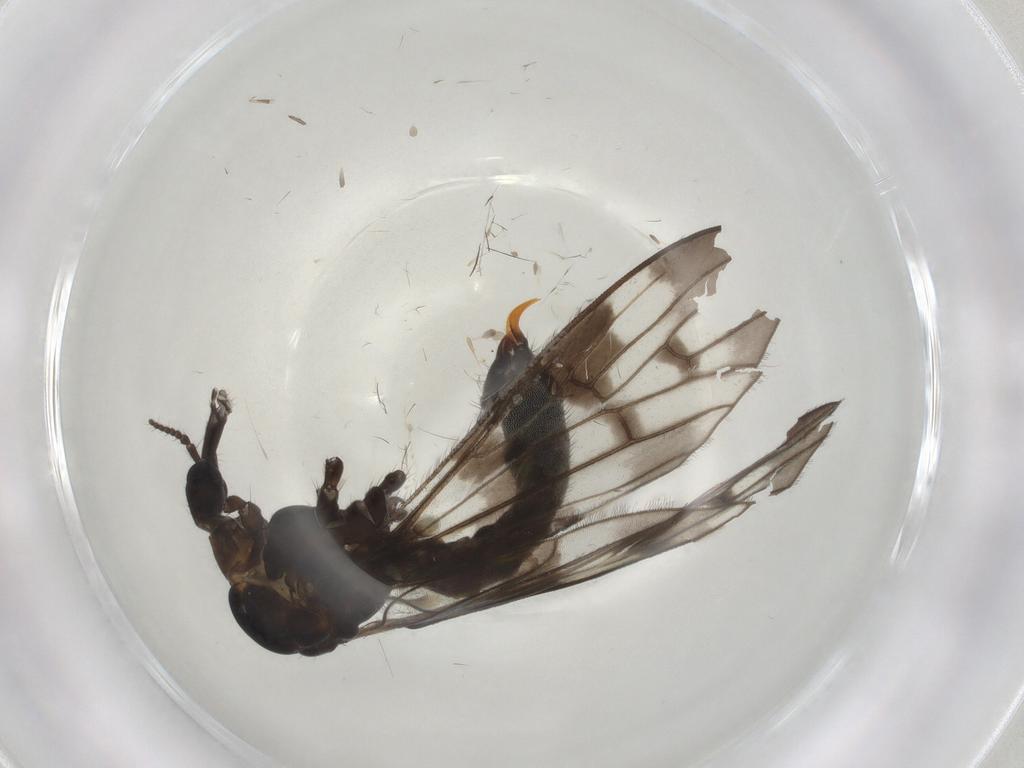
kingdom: Animalia
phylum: Arthropoda
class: Insecta
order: Diptera
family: Limoniidae
